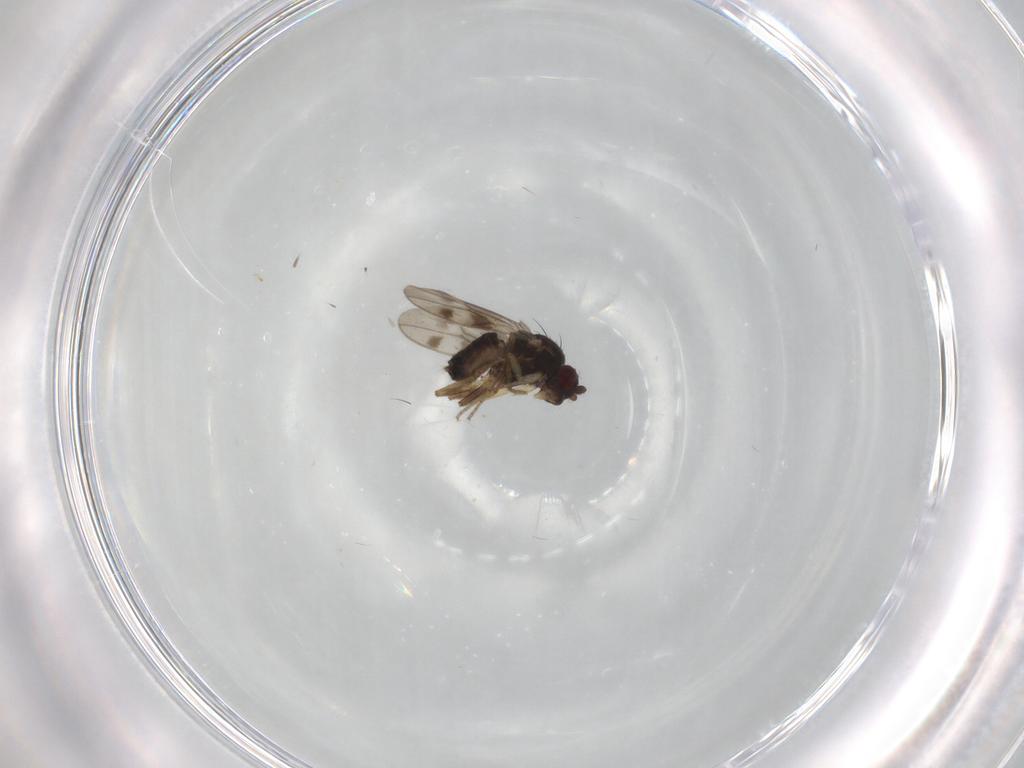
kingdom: Animalia
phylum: Arthropoda
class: Insecta
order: Diptera
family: Sphaeroceridae
